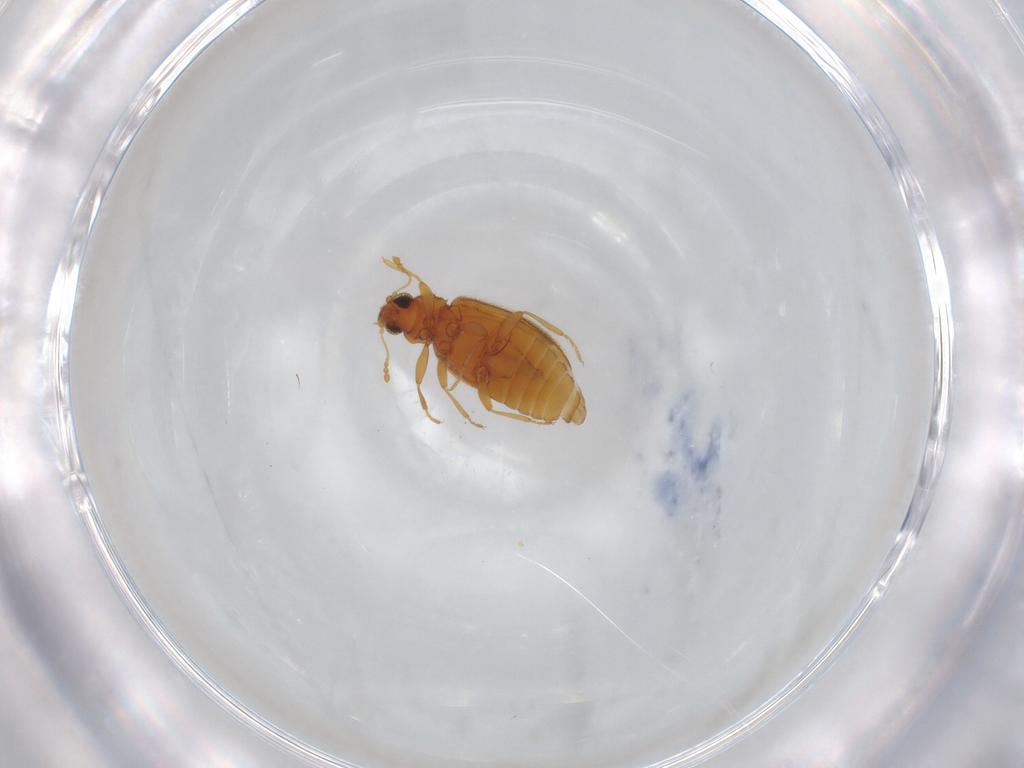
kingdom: Animalia
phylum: Arthropoda
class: Insecta
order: Coleoptera
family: Latridiidae
